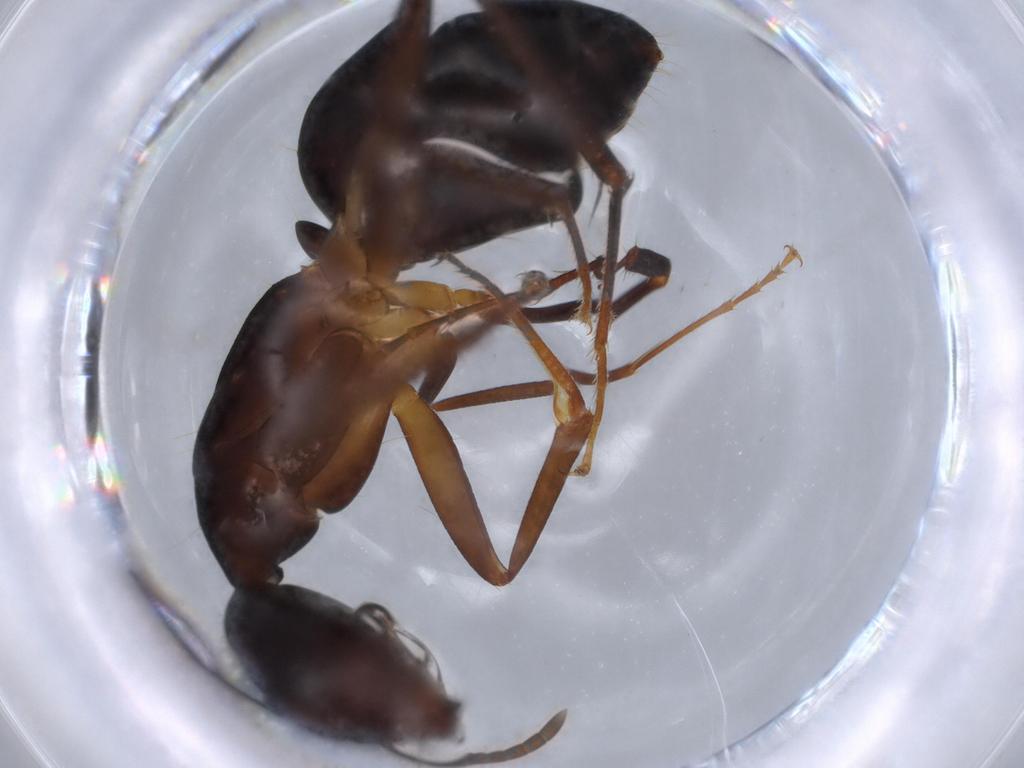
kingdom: Animalia
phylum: Arthropoda
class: Insecta
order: Hymenoptera
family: Formicidae
